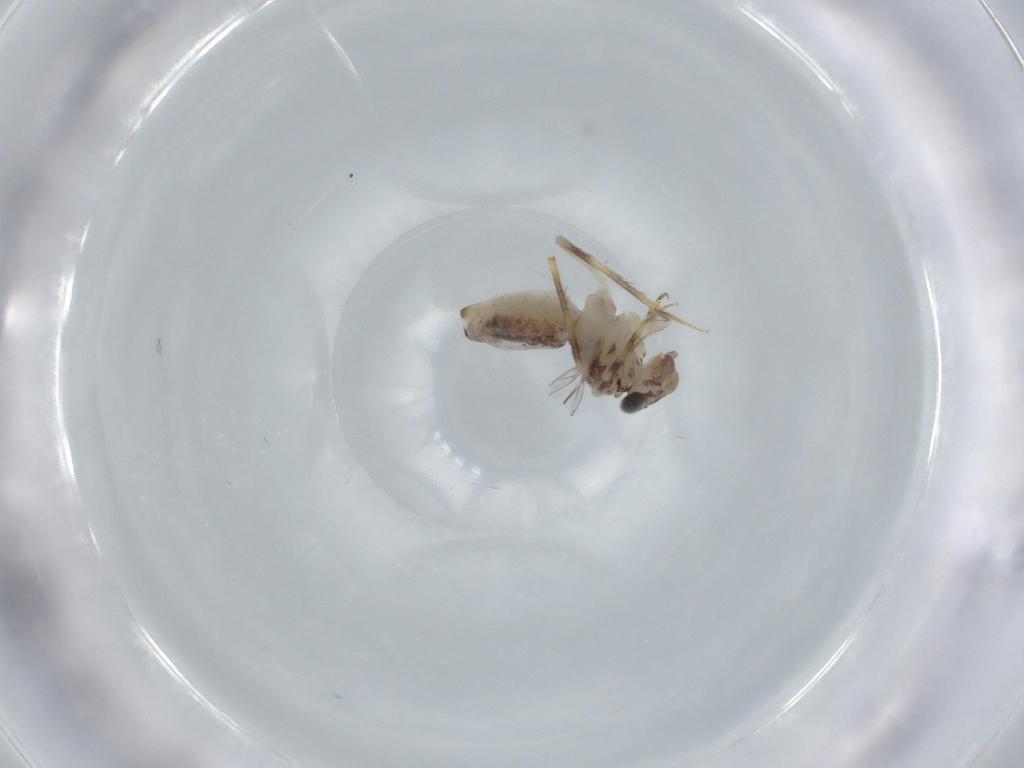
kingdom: Animalia
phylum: Arthropoda
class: Insecta
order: Psocodea
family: Lepidopsocidae
